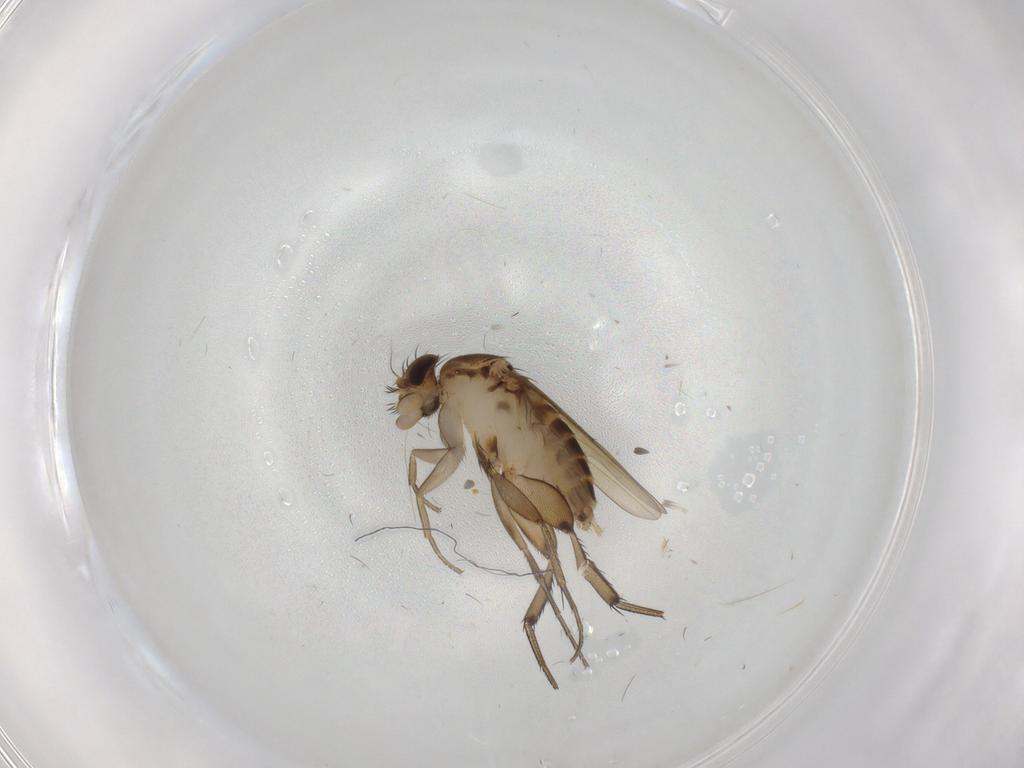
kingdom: Animalia
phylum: Arthropoda
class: Insecta
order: Diptera
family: Phoridae
